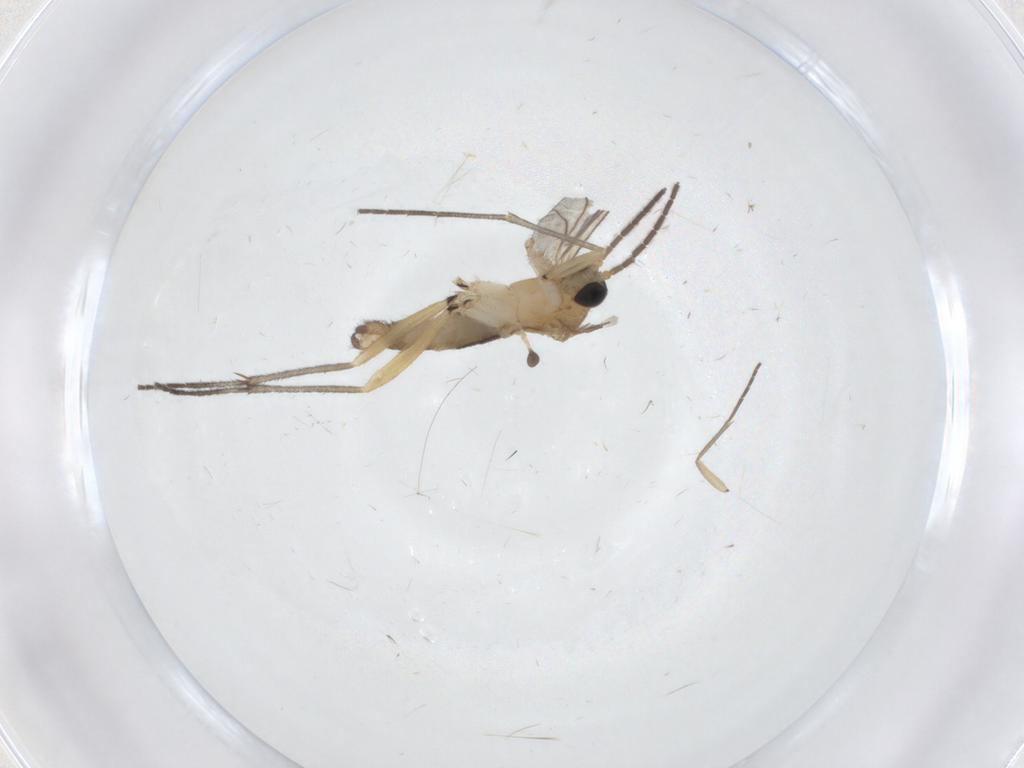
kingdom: Animalia
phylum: Arthropoda
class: Insecta
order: Diptera
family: Sciaridae
